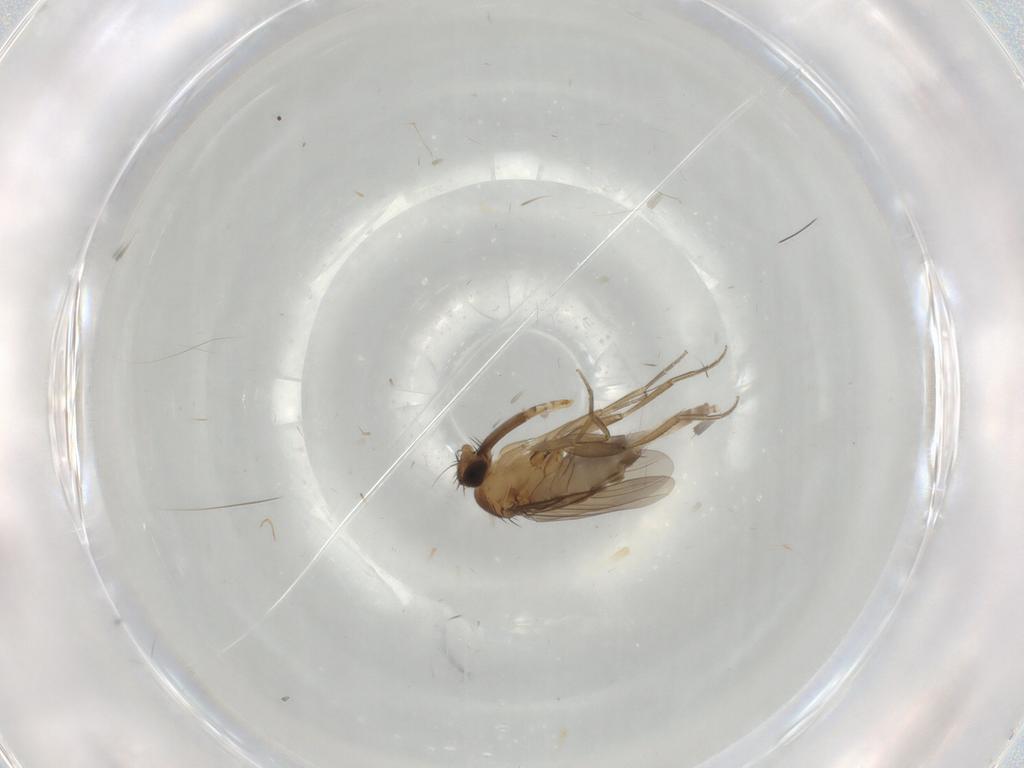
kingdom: Animalia
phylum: Arthropoda
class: Insecta
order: Diptera
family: Phoridae
